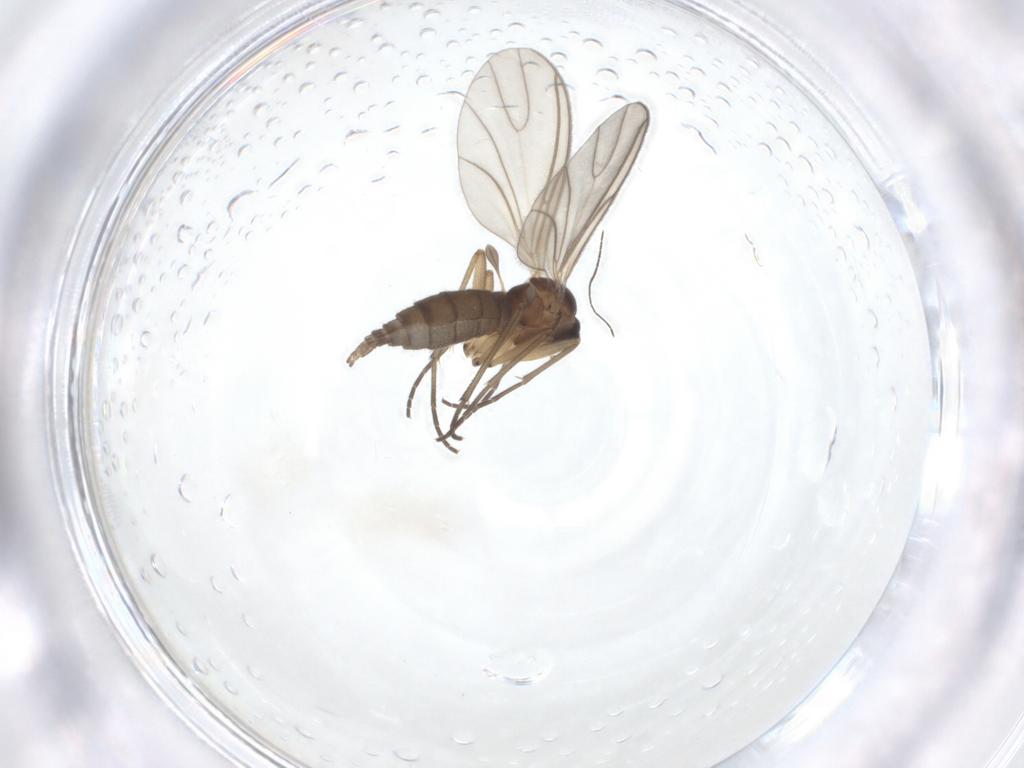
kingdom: Animalia
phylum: Arthropoda
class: Insecta
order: Diptera
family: Sciaridae
